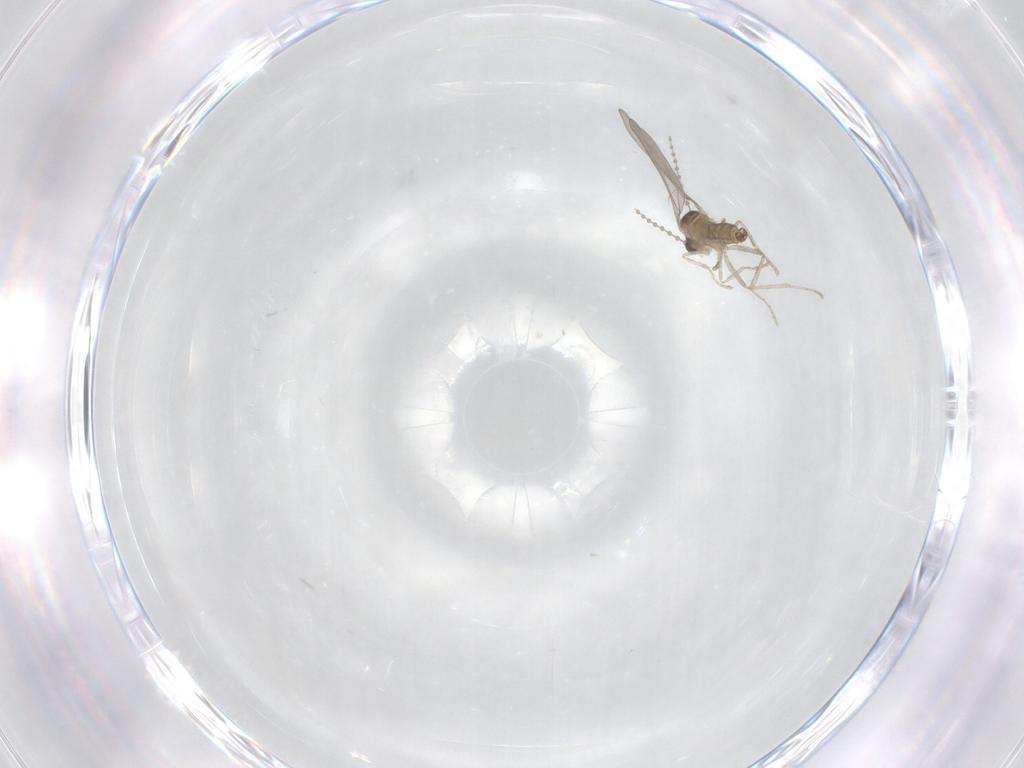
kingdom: Animalia
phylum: Arthropoda
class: Insecta
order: Diptera
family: Cecidomyiidae
